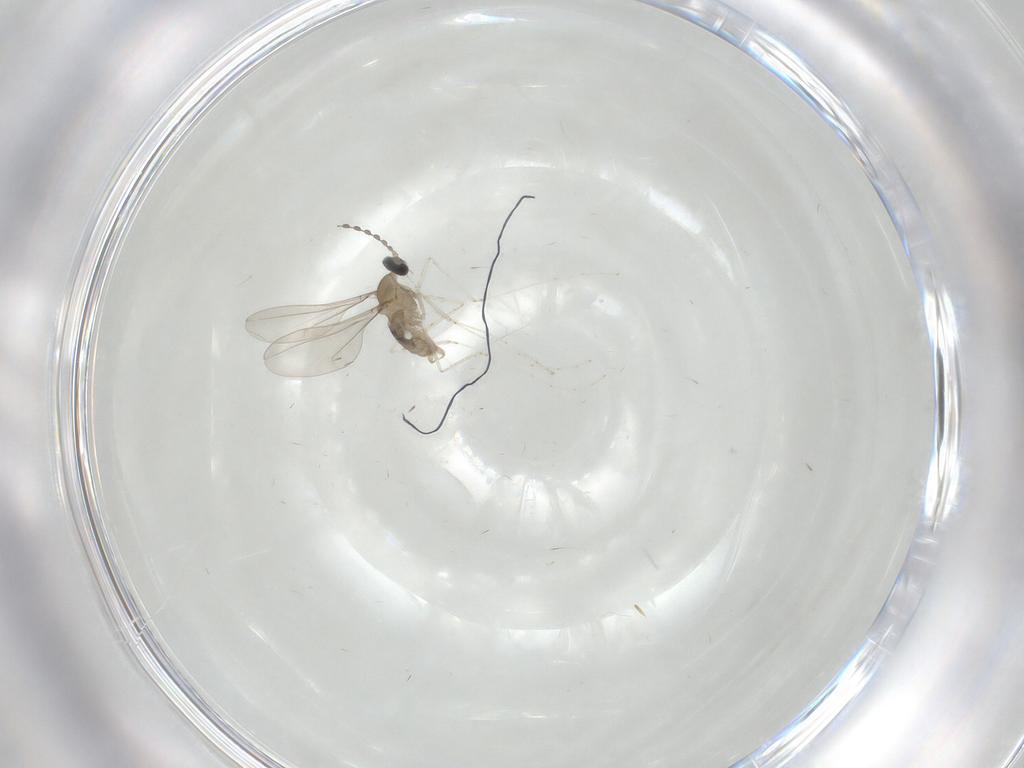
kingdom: Animalia
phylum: Arthropoda
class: Insecta
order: Diptera
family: Cecidomyiidae
